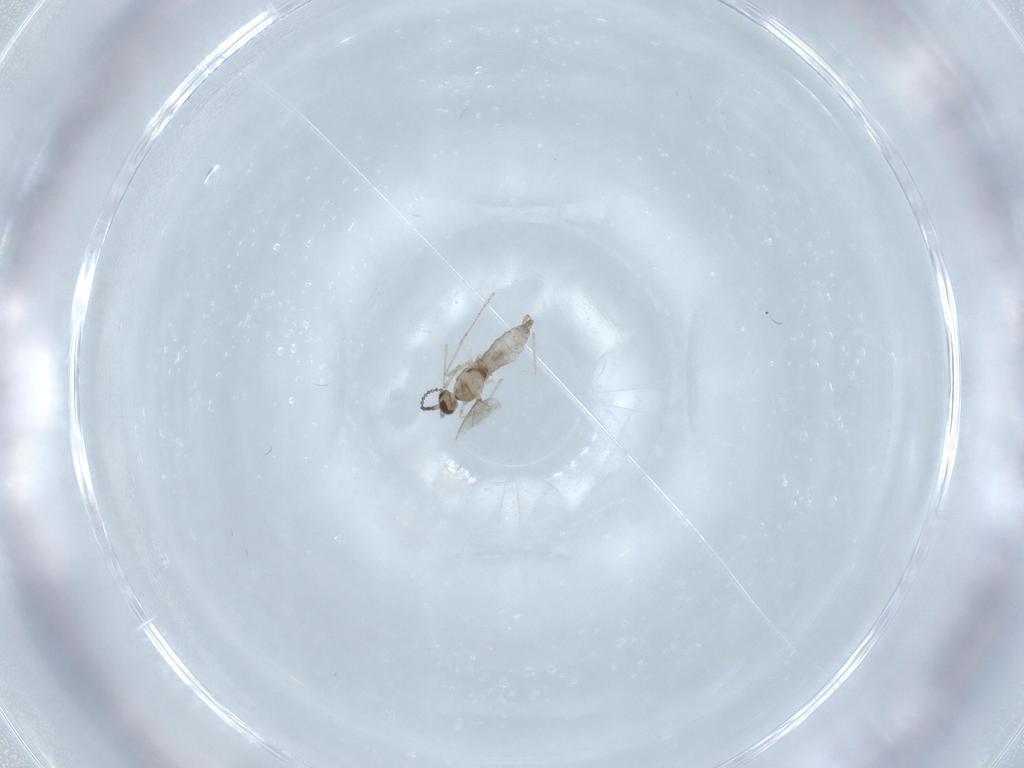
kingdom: Animalia
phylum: Arthropoda
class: Insecta
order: Diptera
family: Cecidomyiidae
